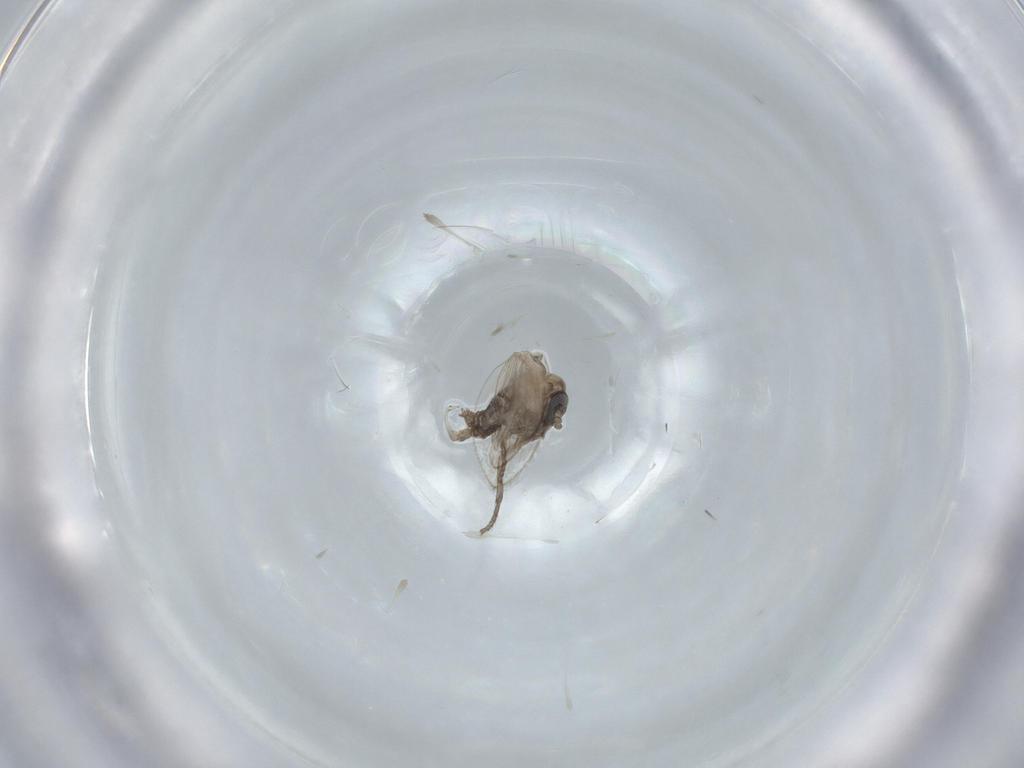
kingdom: Animalia
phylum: Arthropoda
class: Insecta
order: Diptera
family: Psychodidae
